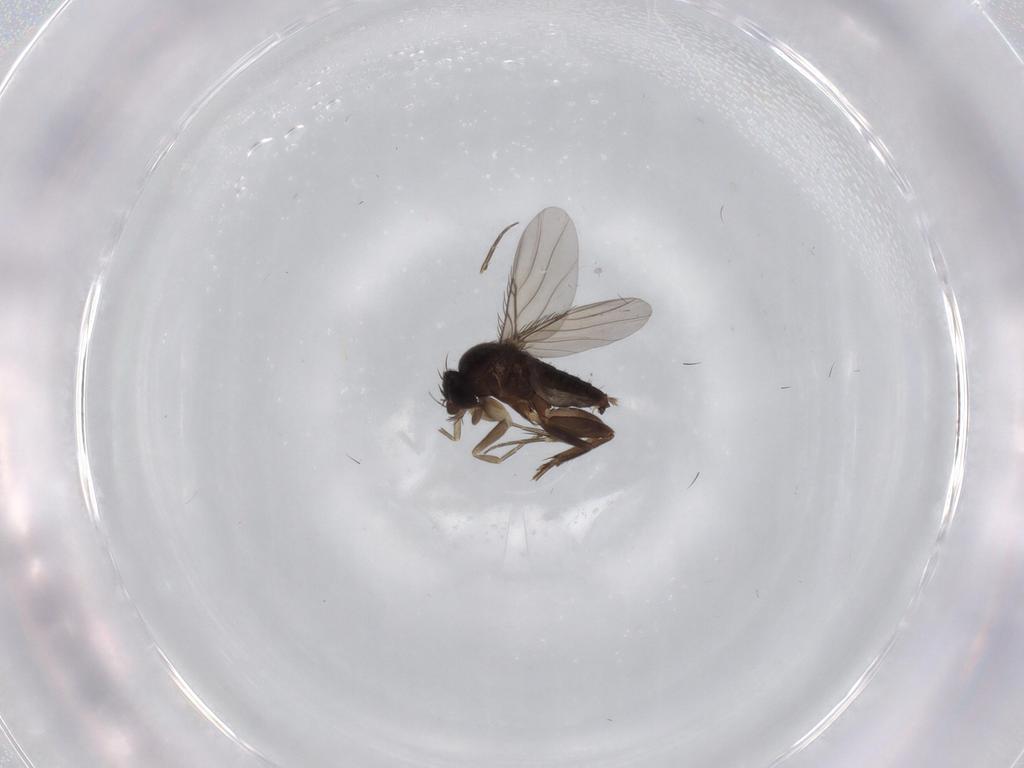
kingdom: Animalia
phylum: Arthropoda
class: Insecta
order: Diptera
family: Phoridae
